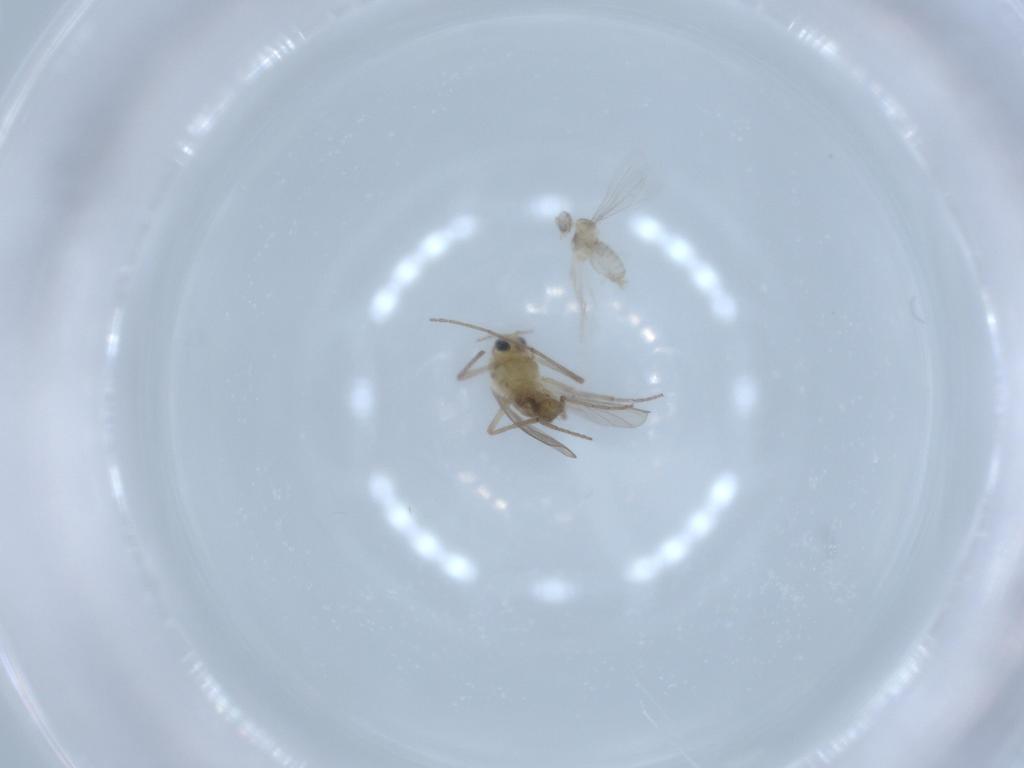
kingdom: Animalia
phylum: Arthropoda
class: Insecta
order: Diptera
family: Chironomidae
